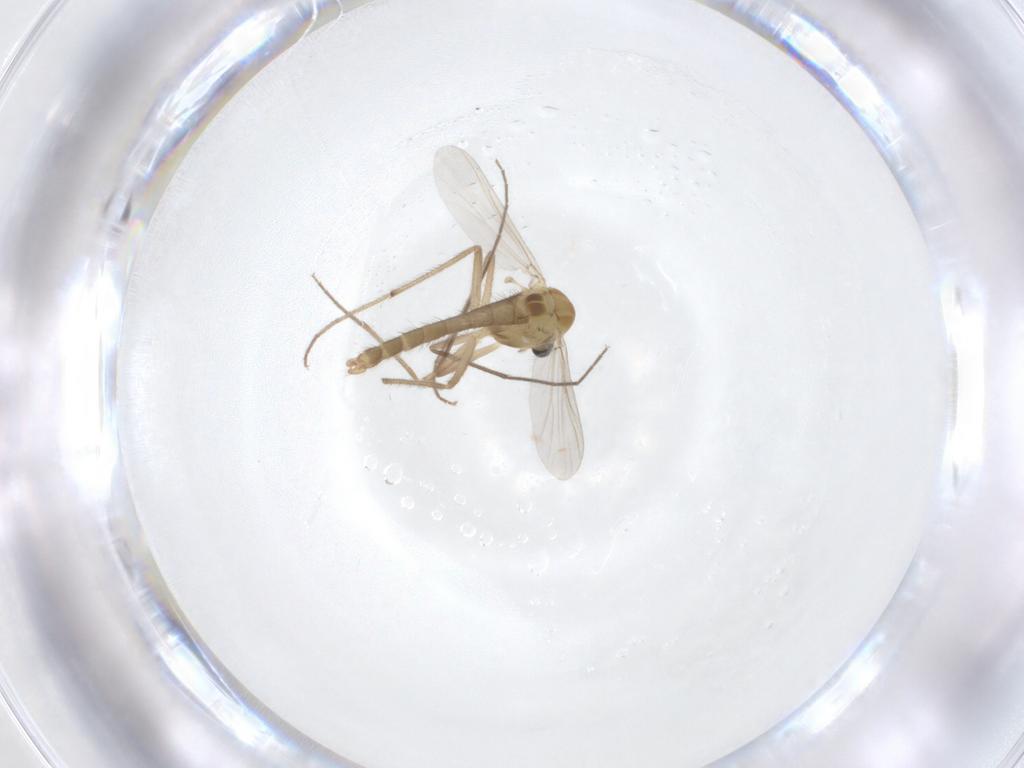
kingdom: Animalia
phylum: Arthropoda
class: Insecta
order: Diptera
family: Chironomidae
